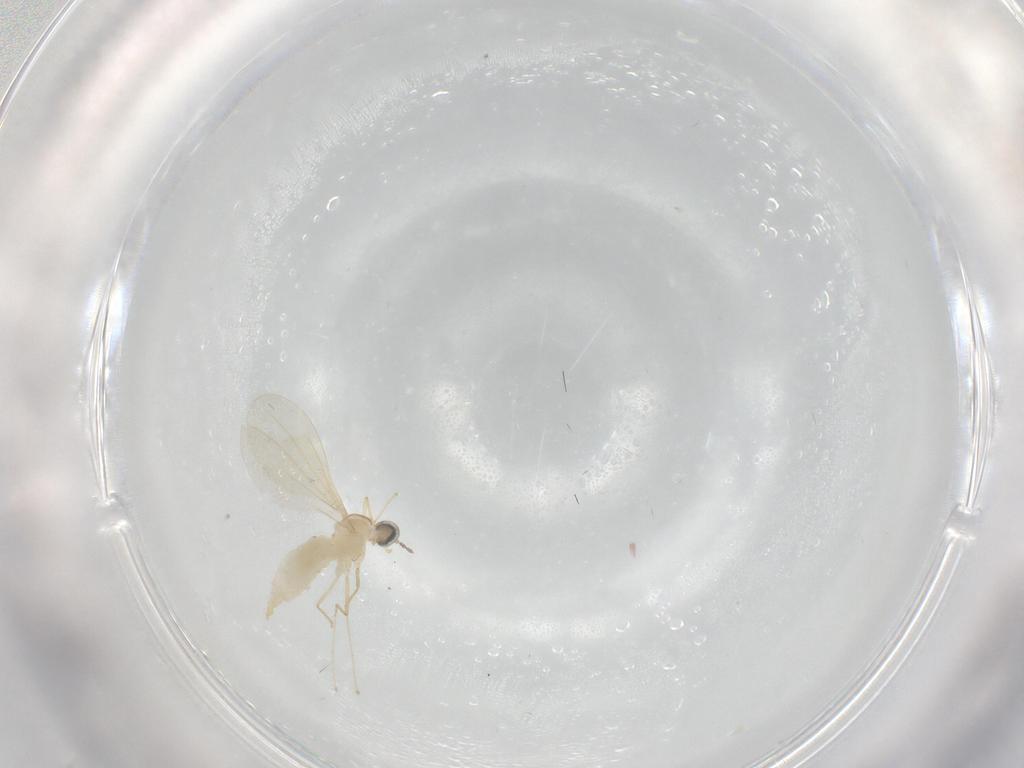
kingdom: Animalia
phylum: Arthropoda
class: Insecta
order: Diptera
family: Cecidomyiidae
